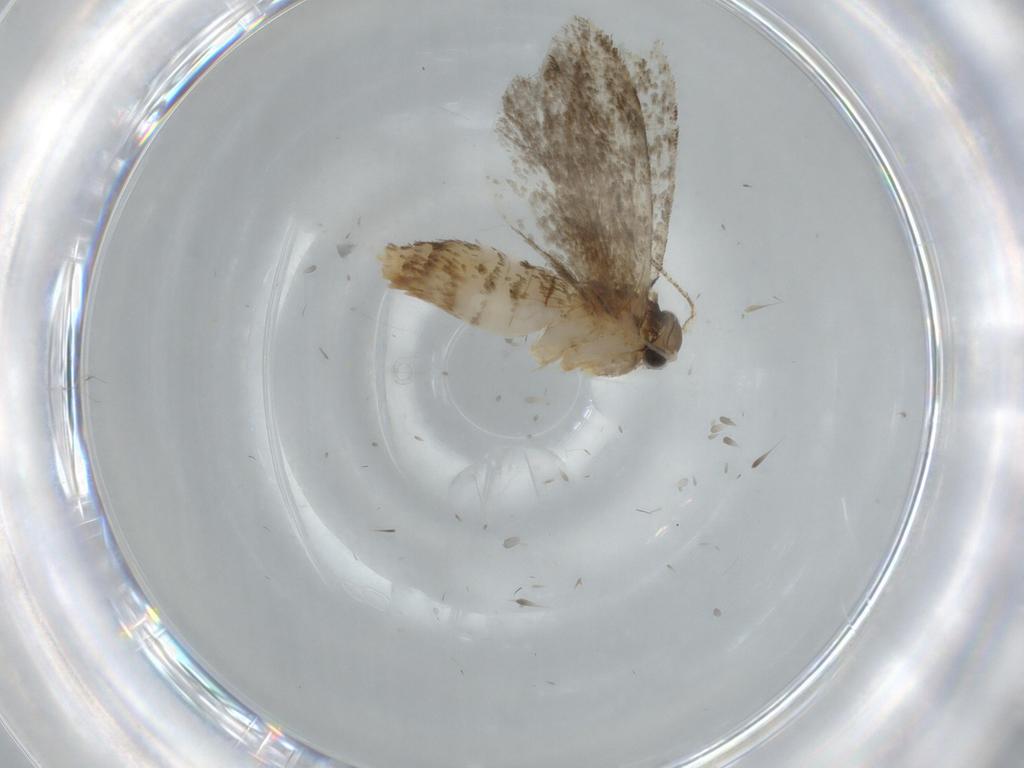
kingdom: Animalia
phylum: Arthropoda
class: Insecta
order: Lepidoptera
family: Tineidae
